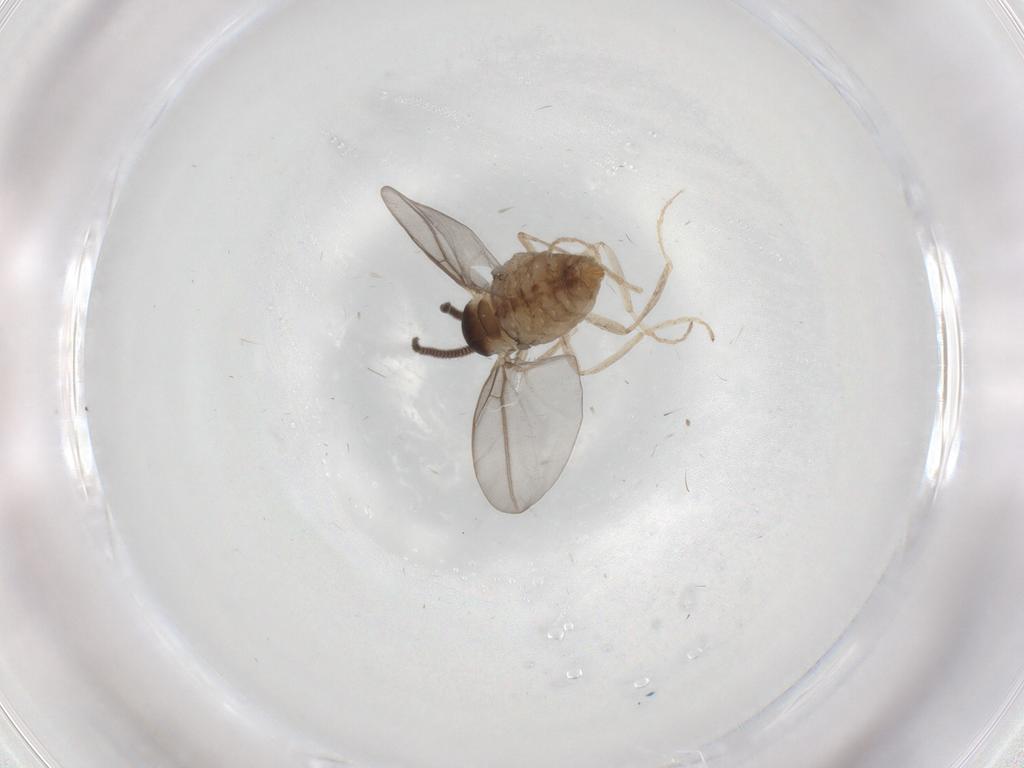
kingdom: Animalia
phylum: Arthropoda
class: Insecta
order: Diptera
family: Cecidomyiidae
